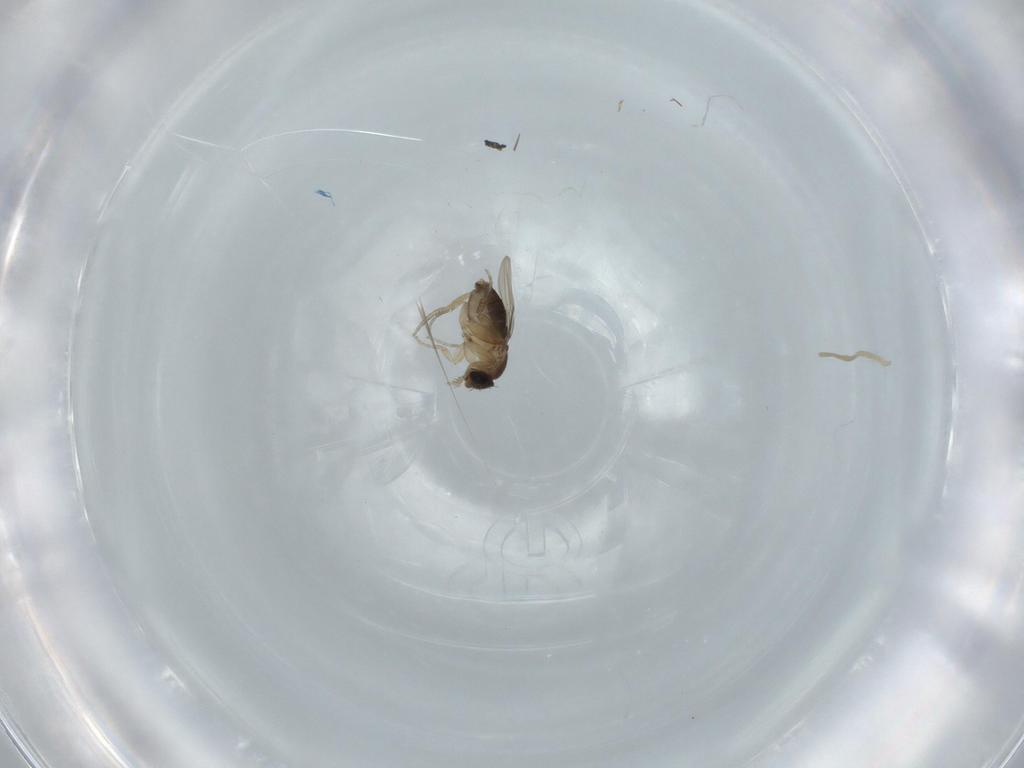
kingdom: Animalia
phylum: Arthropoda
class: Insecta
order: Diptera
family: Phoridae
